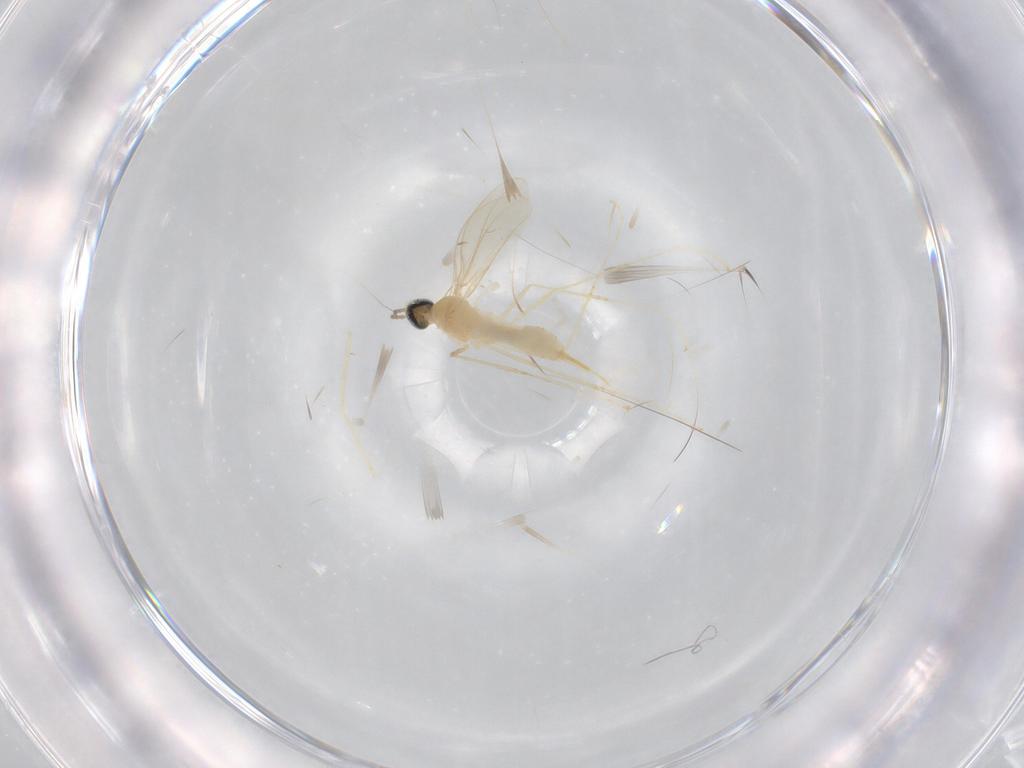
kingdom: Animalia
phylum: Arthropoda
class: Insecta
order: Diptera
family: Cecidomyiidae
